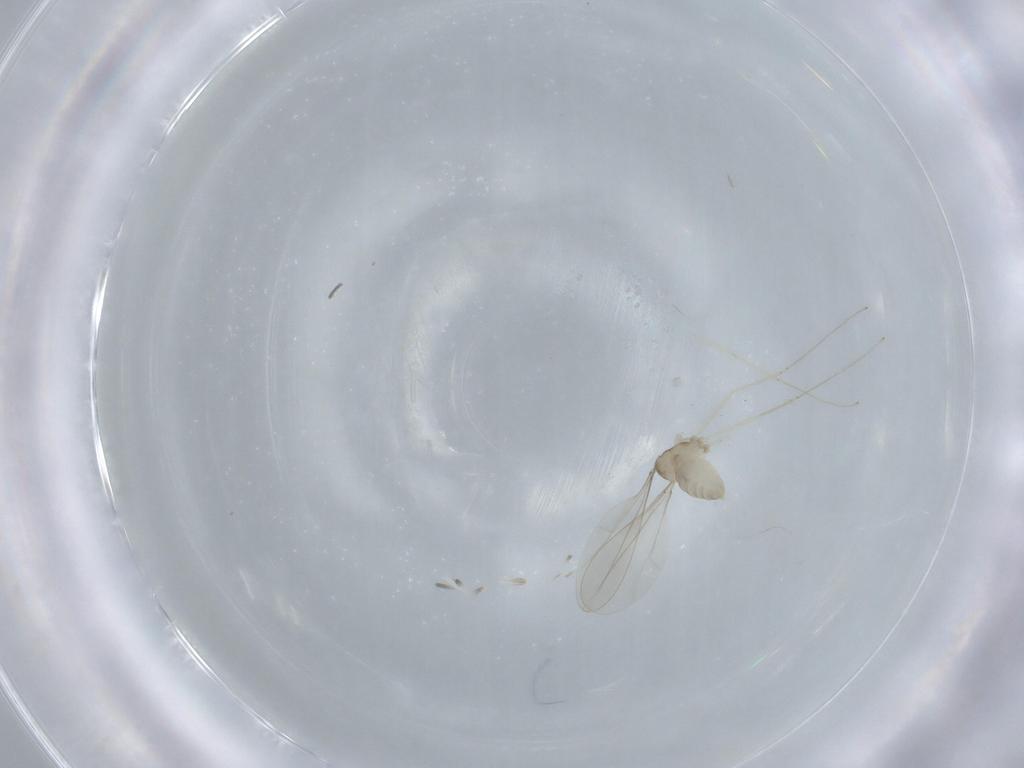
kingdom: Animalia
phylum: Arthropoda
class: Insecta
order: Diptera
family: Cecidomyiidae
